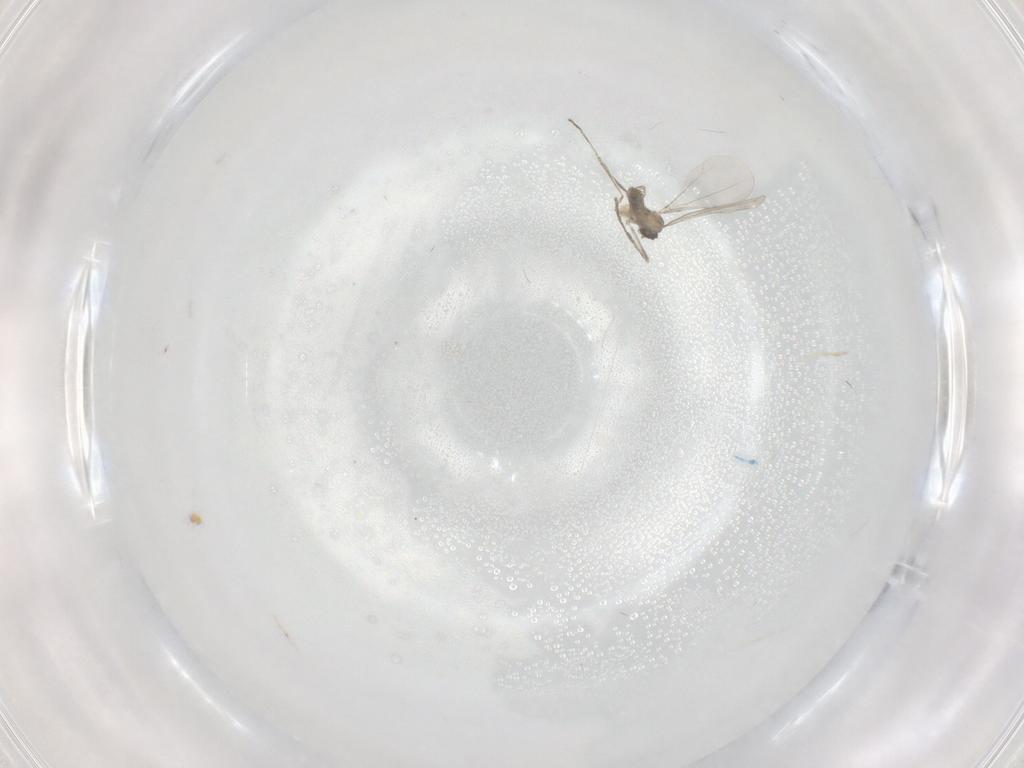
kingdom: Animalia
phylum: Arthropoda
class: Insecta
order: Diptera
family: Cecidomyiidae
